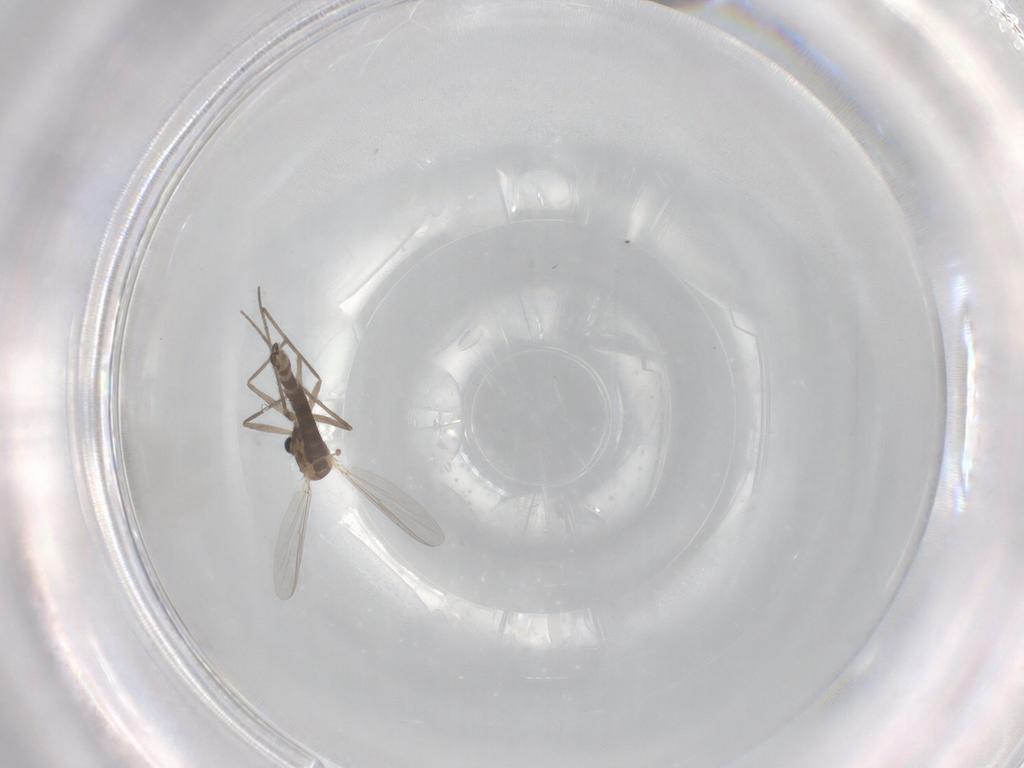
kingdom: Animalia
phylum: Arthropoda
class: Insecta
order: Diptera
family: Chironomidae
